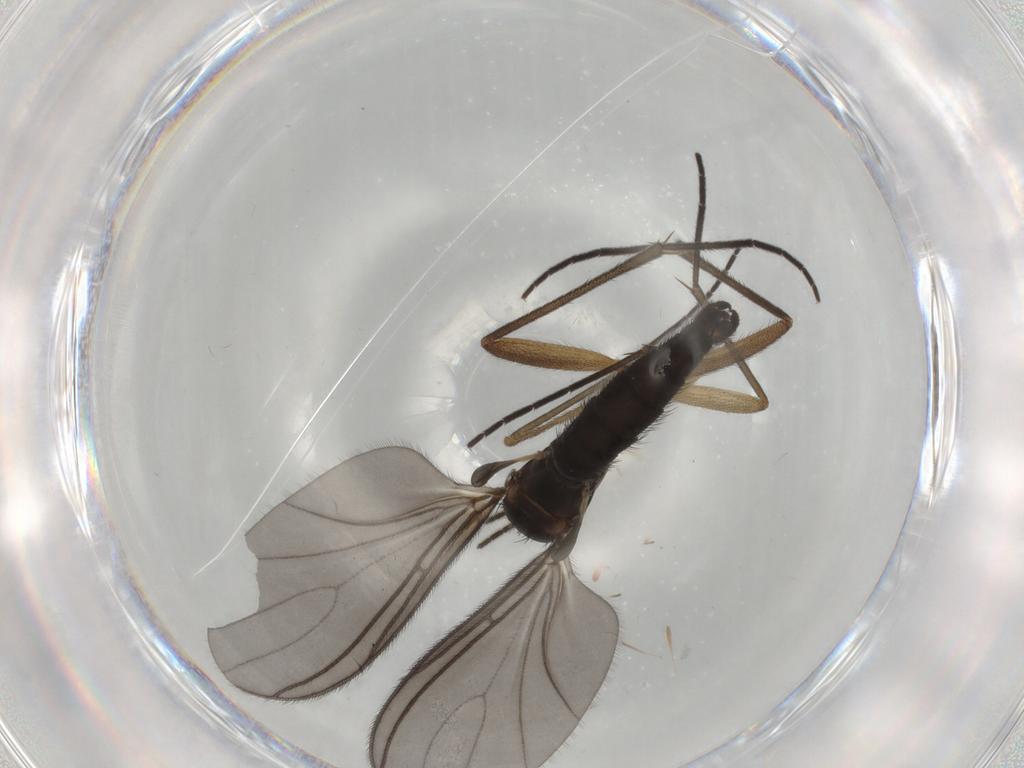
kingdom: Animalia
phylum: Arthropoda
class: Insecta
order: Diptera
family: Sciaridae
